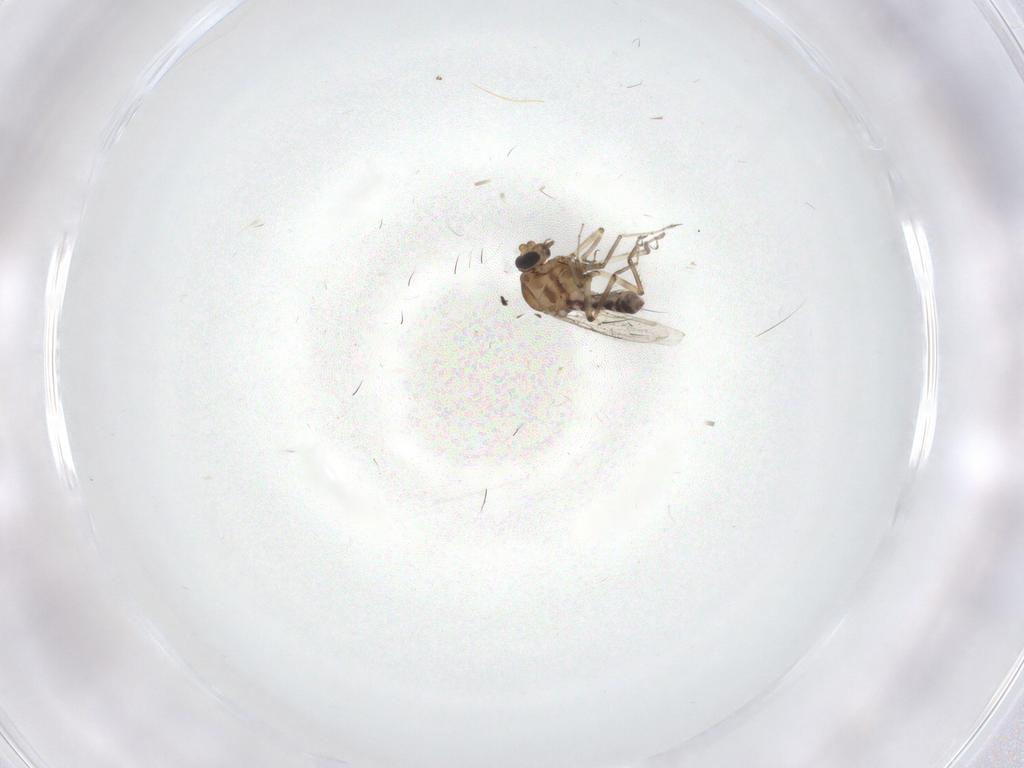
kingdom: Animalia
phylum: Arthropoda
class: Insecta
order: Diptera
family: Ceratopogonidae
